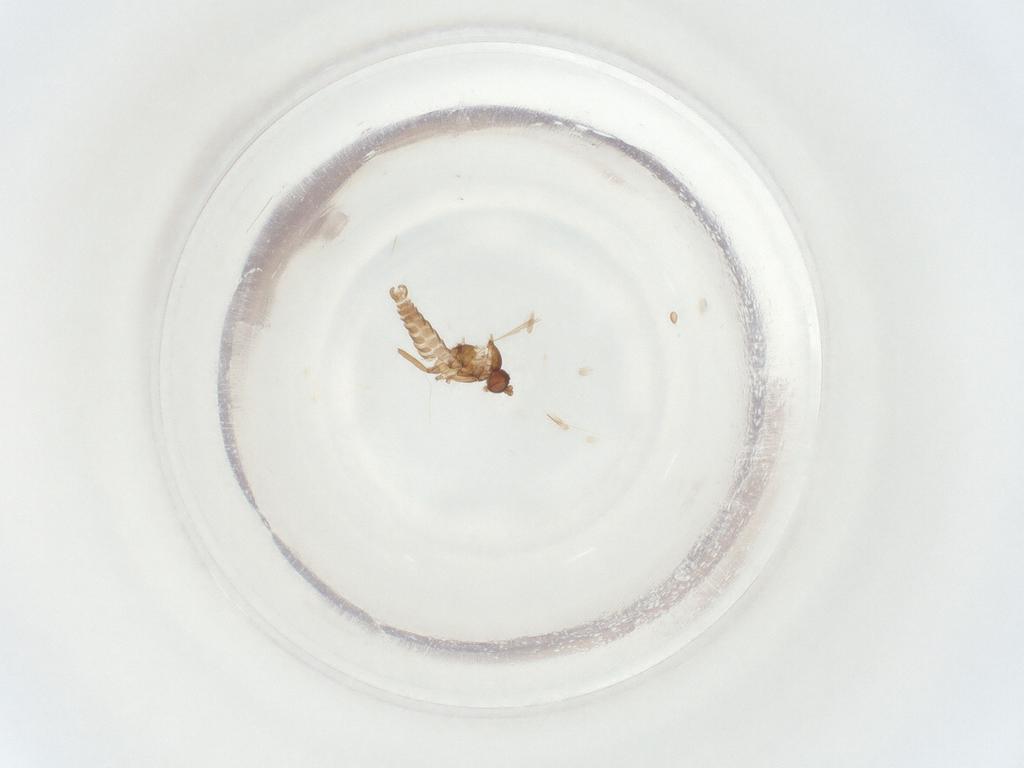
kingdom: Animalia
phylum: Arthropoda
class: Insecta
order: Diptera
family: Sciaridae
